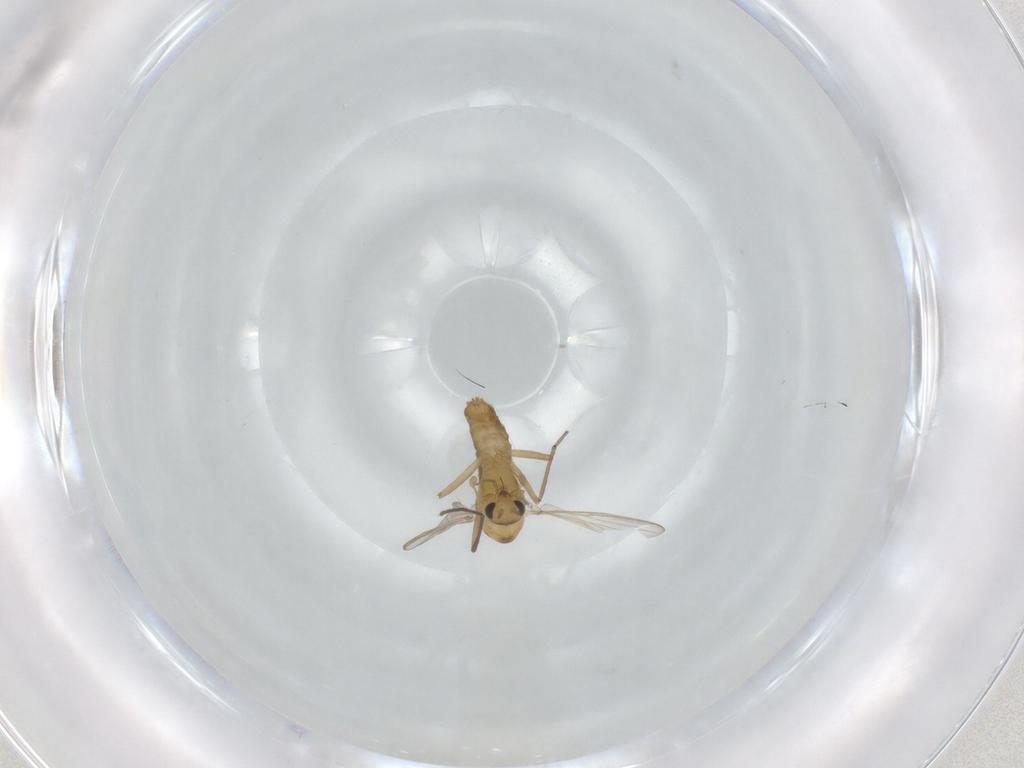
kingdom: Animalia
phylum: Arthropoda
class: Insecta
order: Diptera
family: Chironomidae
